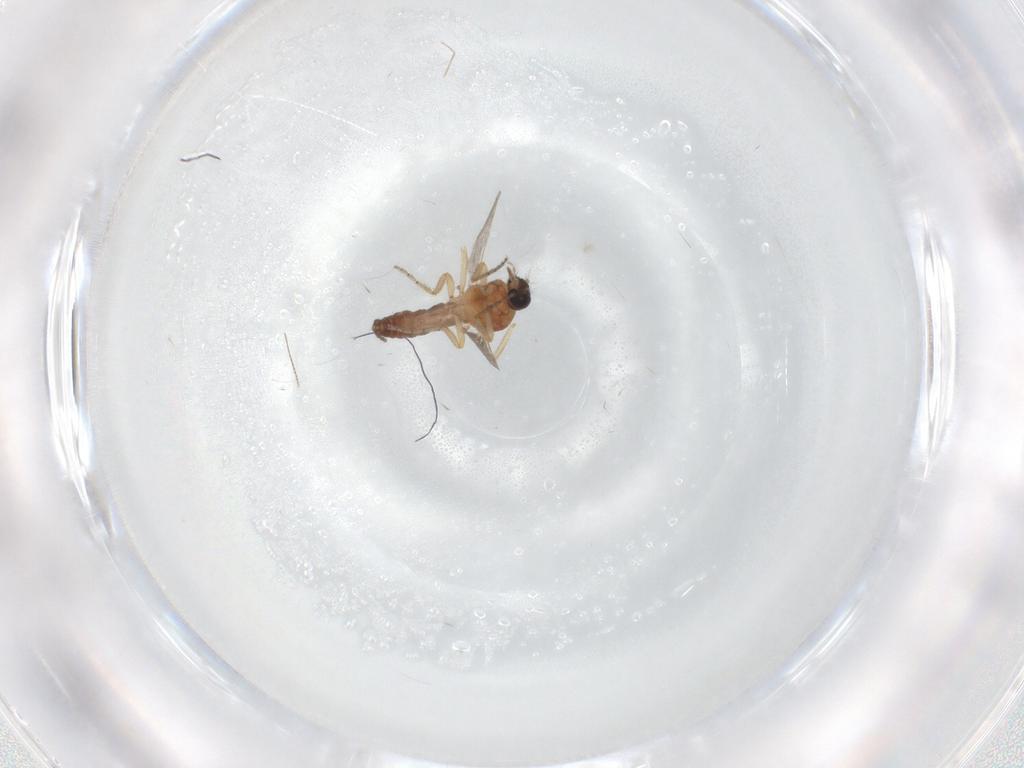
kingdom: Animalia
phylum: Arthropoda
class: Insecta
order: Diptera
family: Ceratopogonidae
